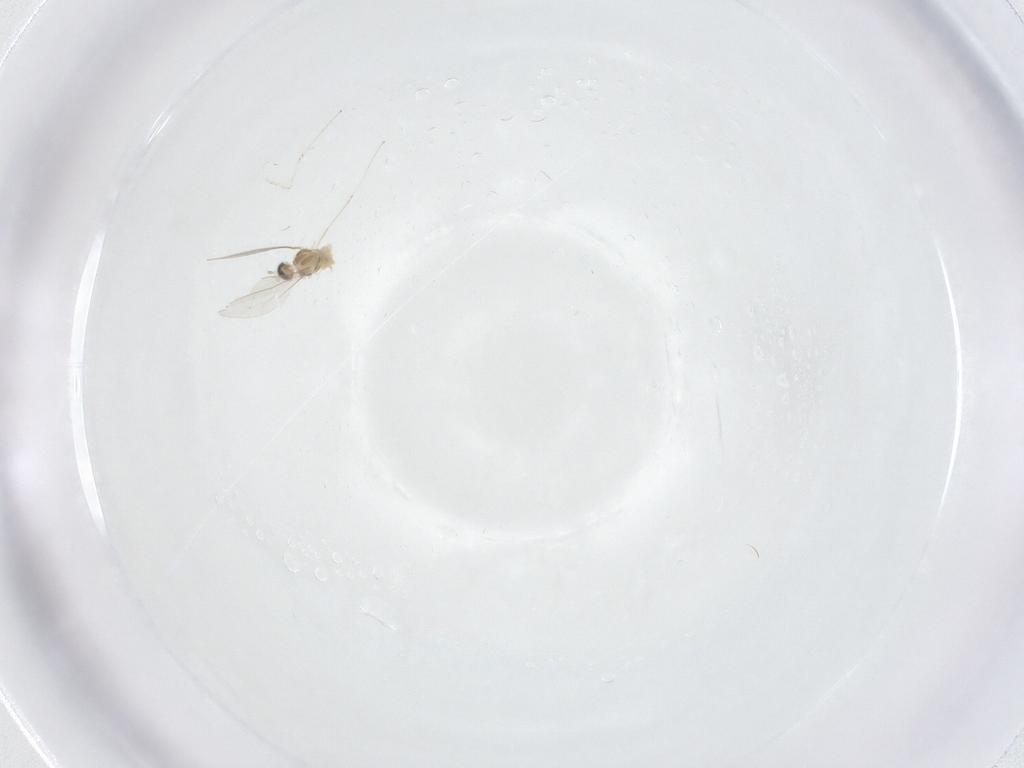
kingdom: Animalia
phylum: Arthropoda
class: Insecta
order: Diptera
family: Cecidomyiidae
